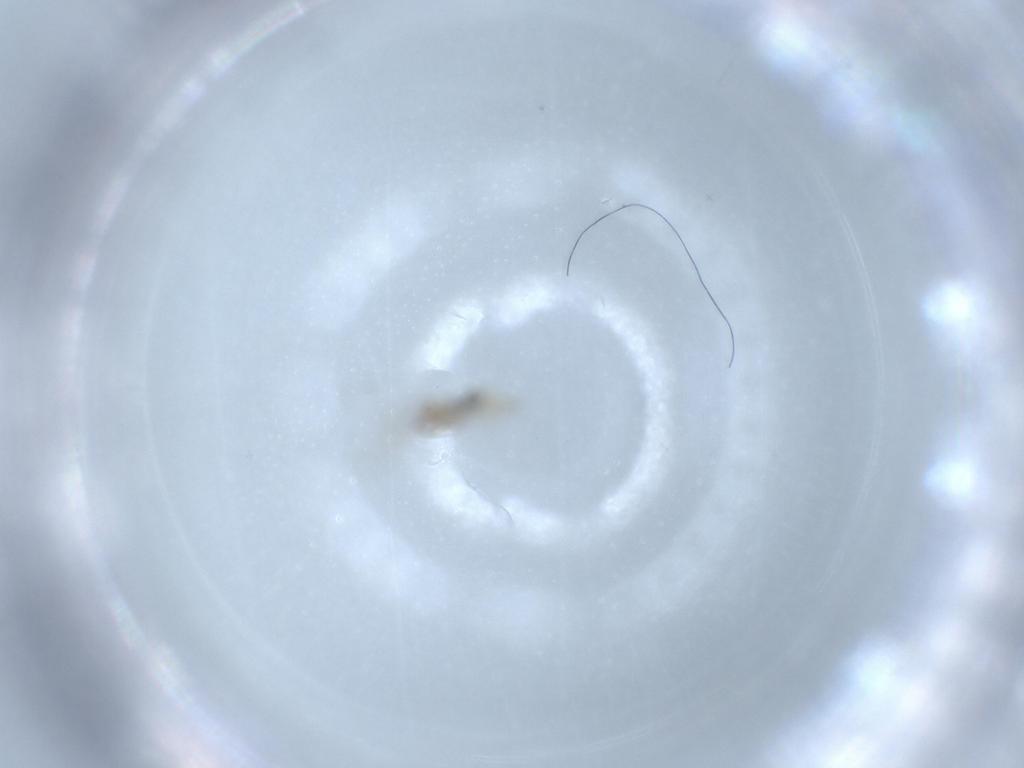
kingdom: Animalia
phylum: Arthropoda
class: Insecta
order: Diptera
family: Cecidomyiidae
